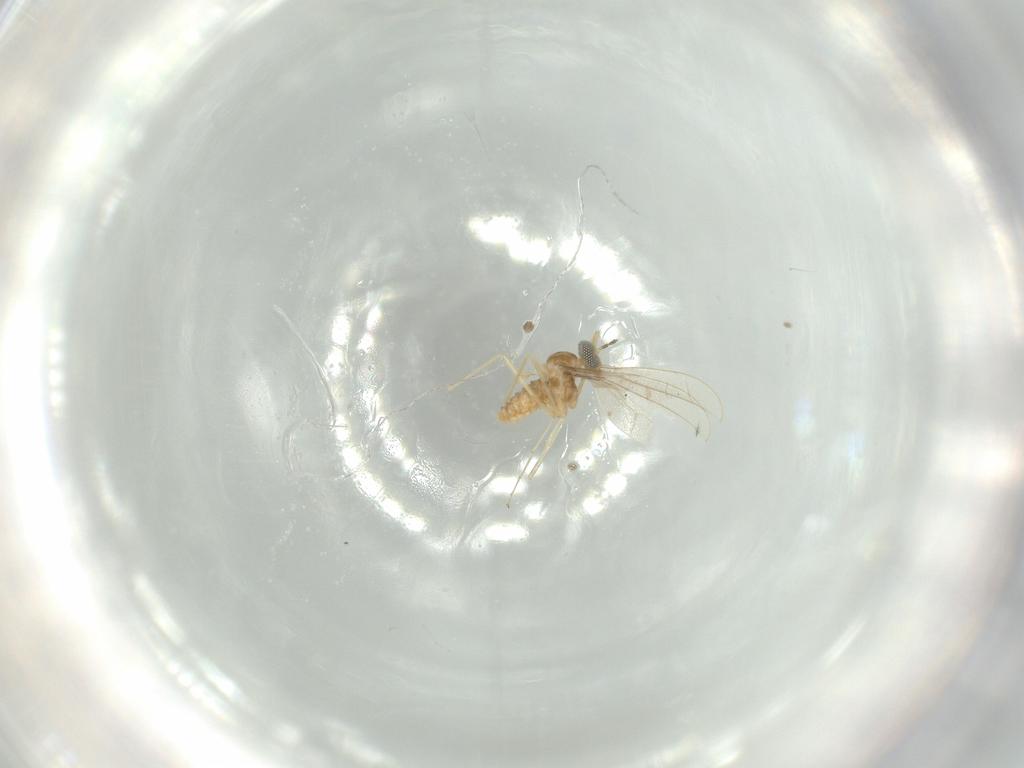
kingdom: Animalia
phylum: Arthropoda
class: Insecta
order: Diptera
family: Cecidomyiidae
